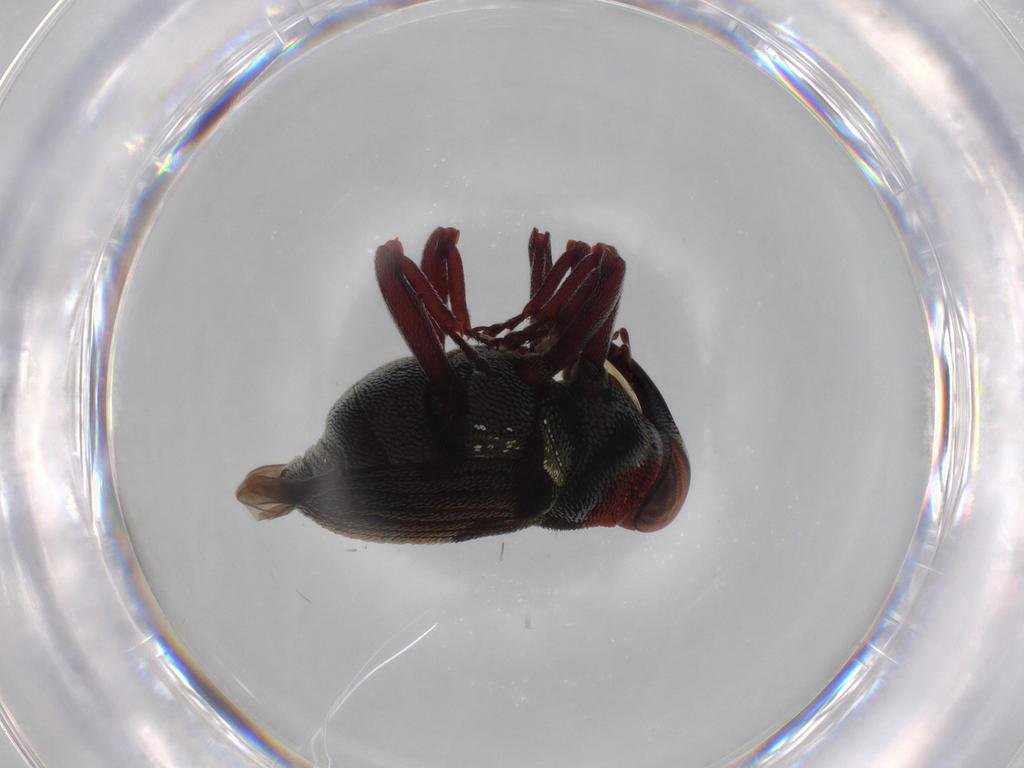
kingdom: Animalia
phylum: Arthropoda
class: Insecta
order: Coleoptera
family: Curculionidae
